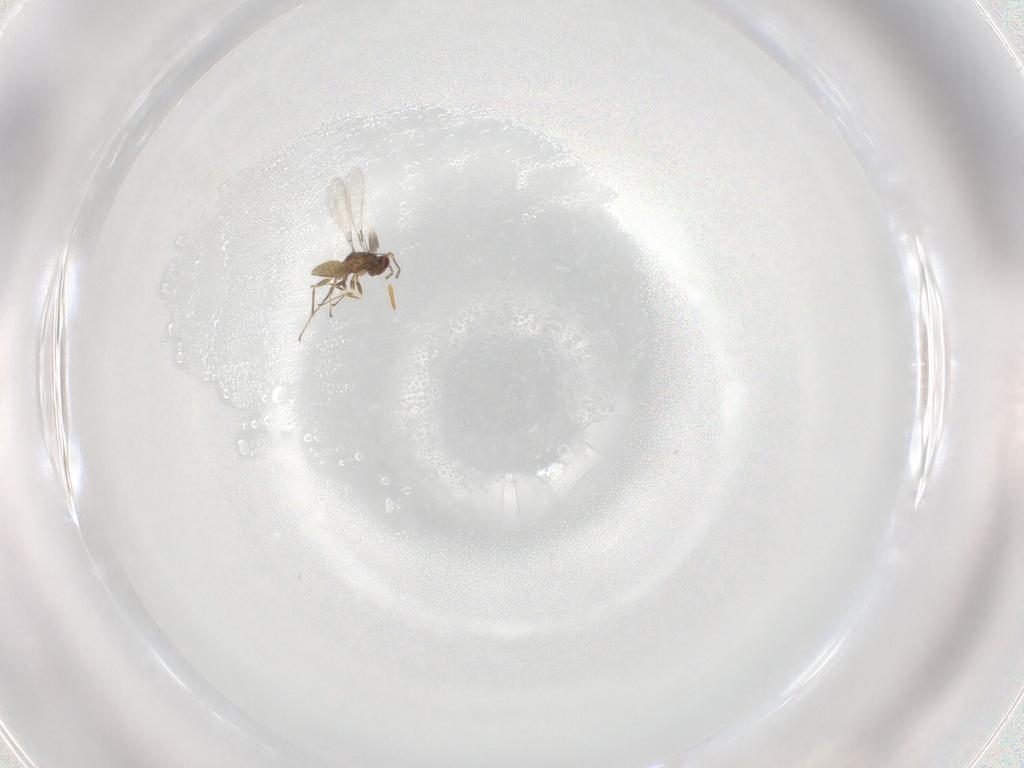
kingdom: Animalia
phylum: Arthropoda
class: Insecta
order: Hymenoptera
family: Mymaridae
